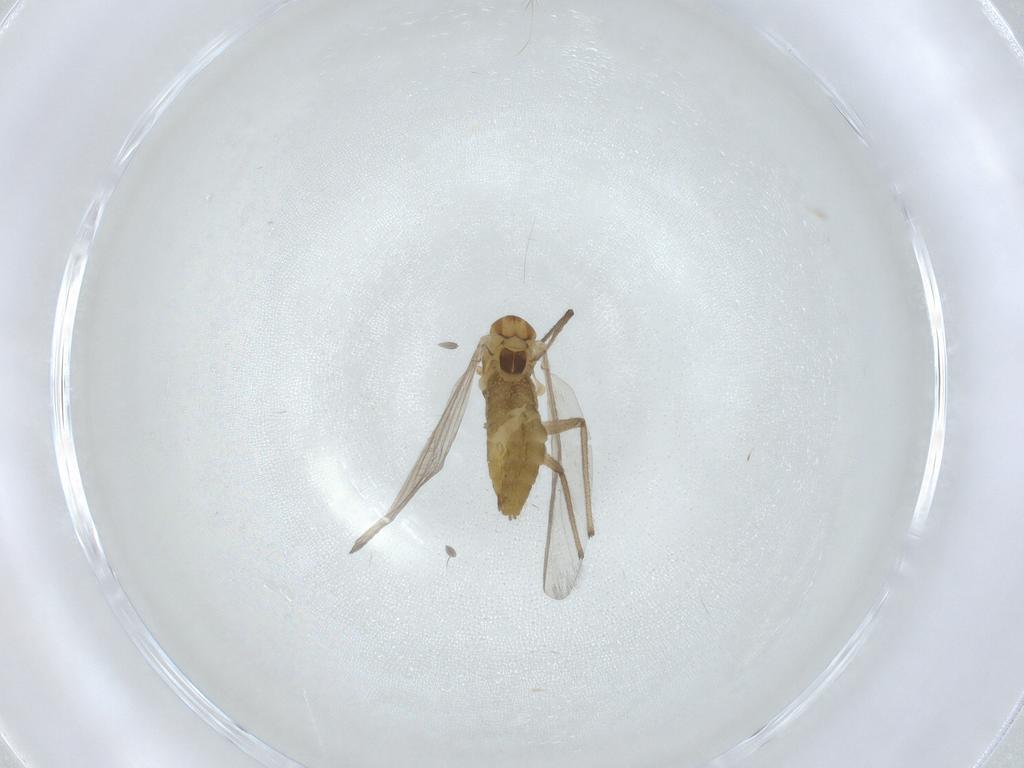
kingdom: Animalia
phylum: Arthropoda
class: Insecta
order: Diptera
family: Chironomidae
